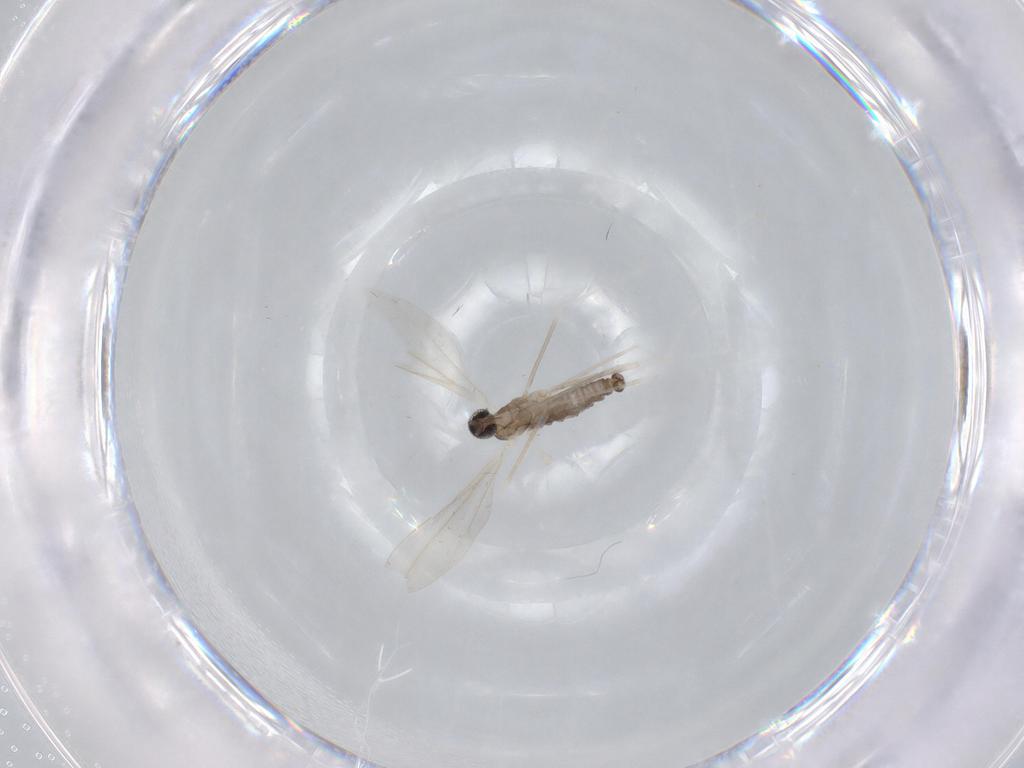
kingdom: Animalia
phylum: Arthropoda
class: Insecta
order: Diptera
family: Cecidomyiidae
